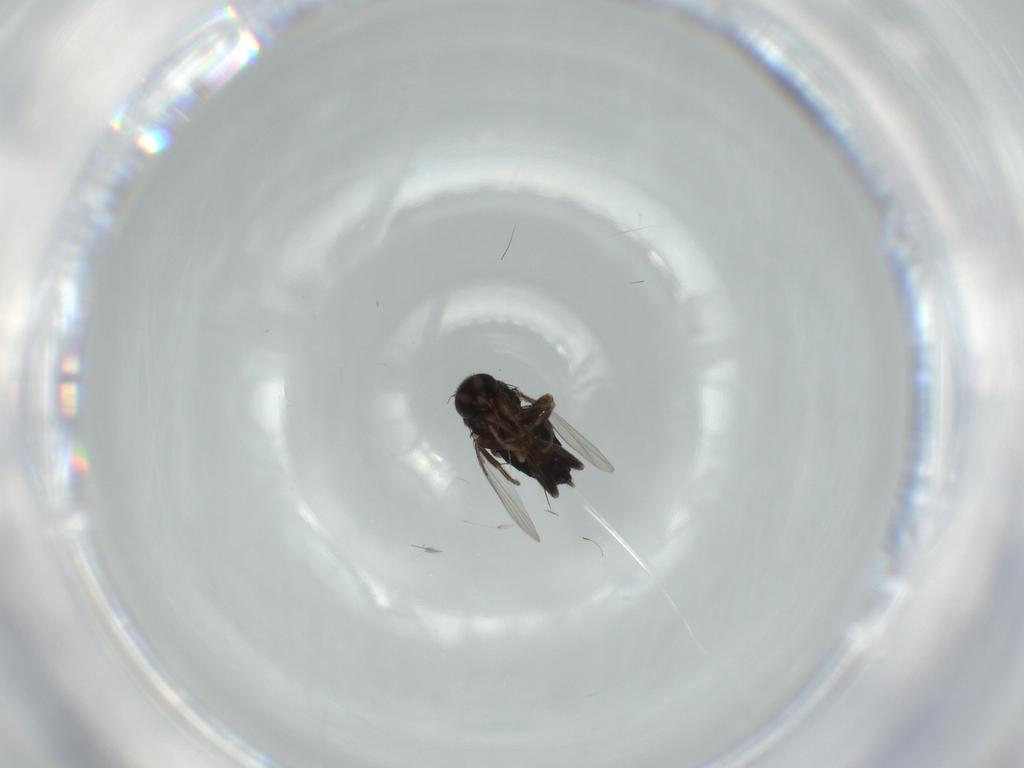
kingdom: Animalia
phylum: Arthropoda
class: Insecta
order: Diptera
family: Phoridae
